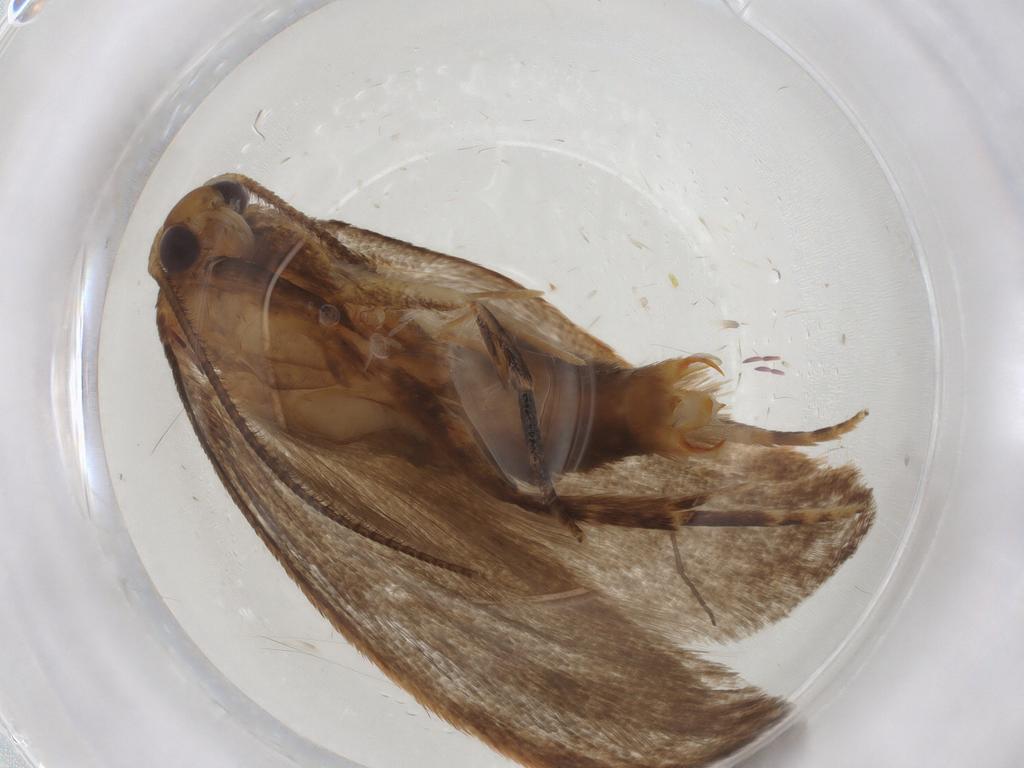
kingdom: Animalia
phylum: Arthropoda
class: Insecta
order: Lepidoptera
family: Oecophoridae
